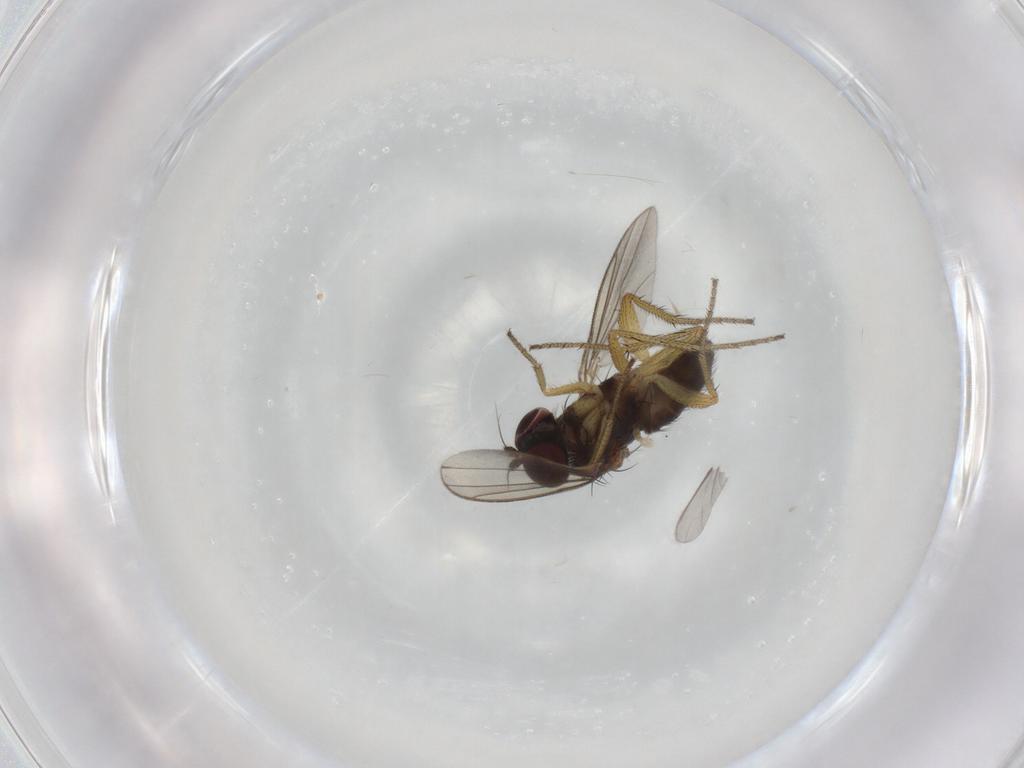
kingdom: Animalia
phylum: Arthropoda
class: Insecta
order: Diptera
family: Sciaridae
